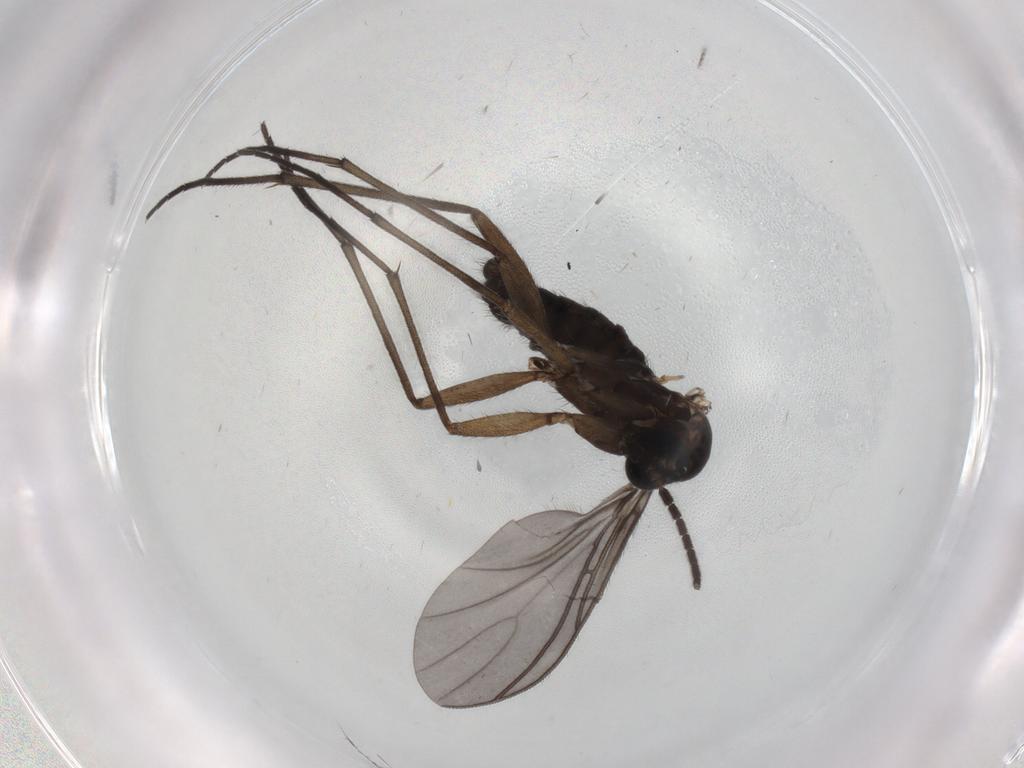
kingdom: Animalia
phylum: Arthropoda
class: Insecta
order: Diptera
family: Sciaridae
